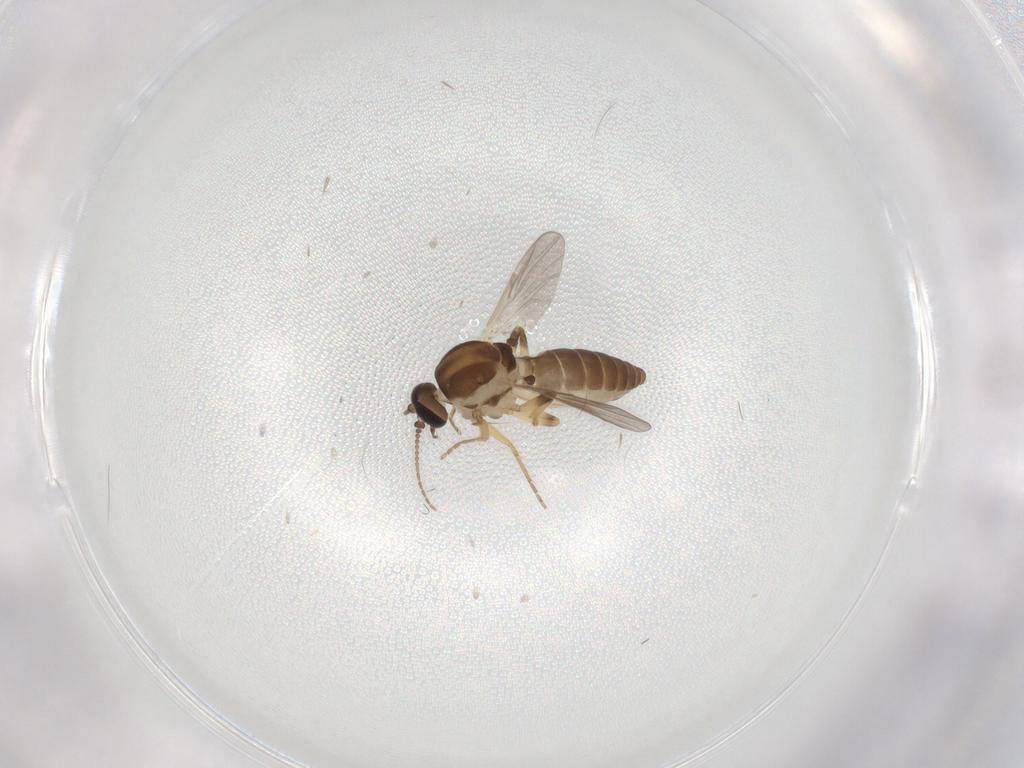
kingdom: Animalia
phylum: Arthropoda
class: Insecta
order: Diptera
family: Ceratopogonidae
